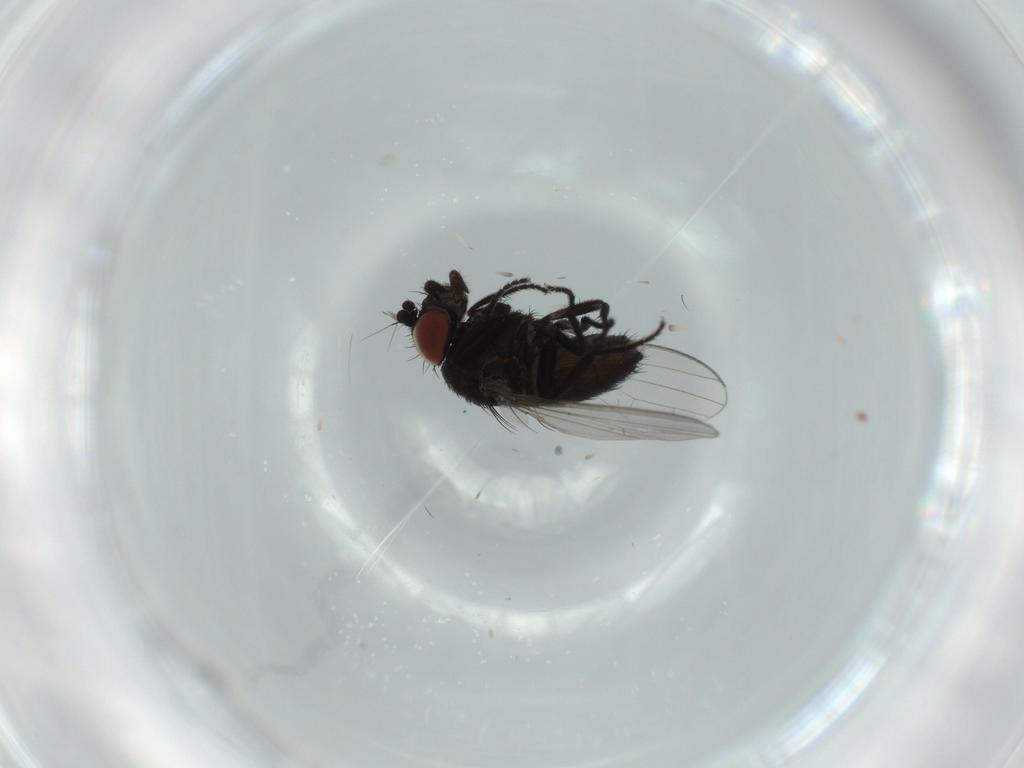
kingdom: Animalia
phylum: Arthropoda
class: Insecta
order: Diptera
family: Milichiidae
